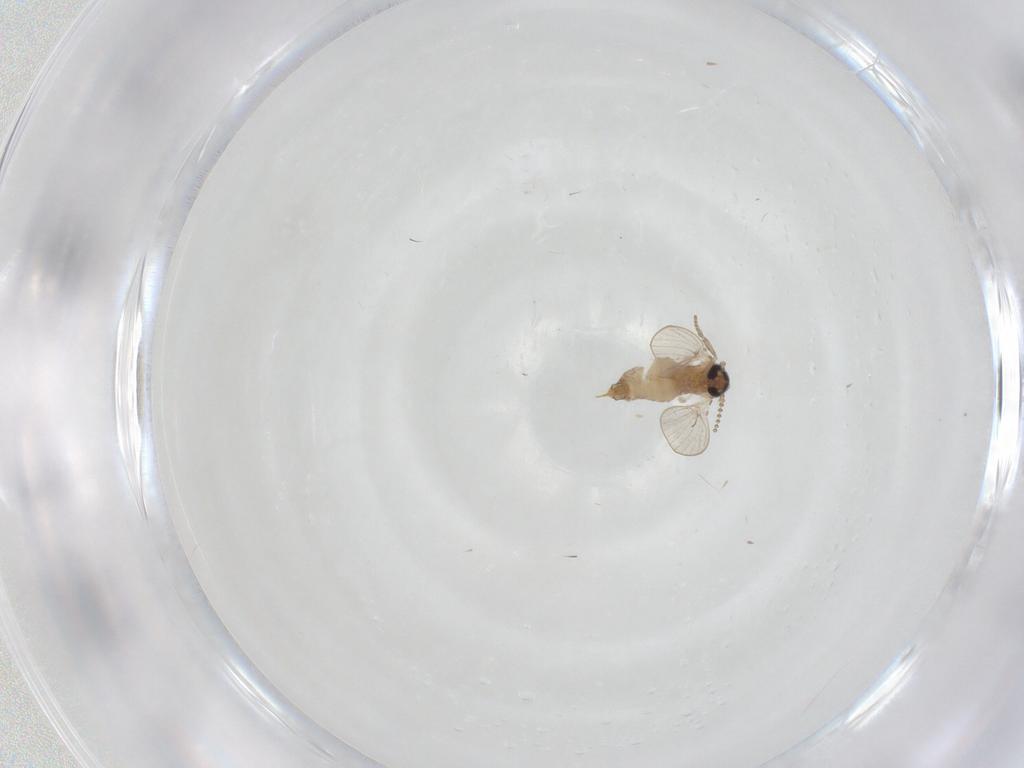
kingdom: Animalia
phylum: Arthropoda
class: Insecta
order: Diptera
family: Psychodidae
